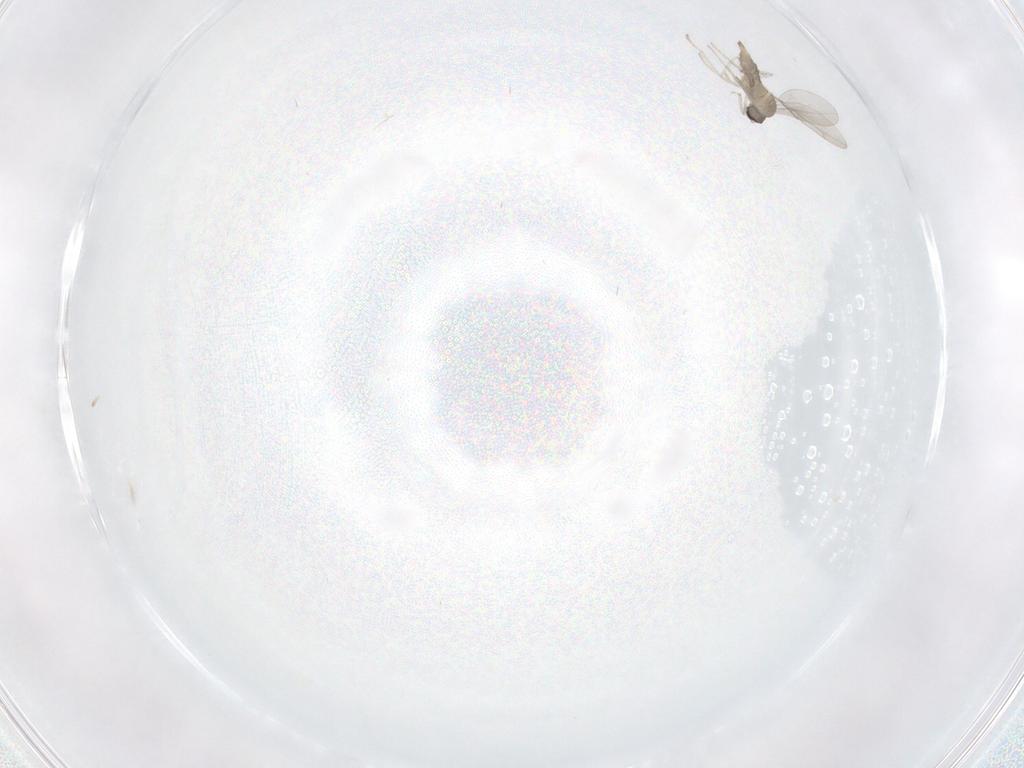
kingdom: Animalia
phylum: Arthropoda
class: Insecta
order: Diptera
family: Cecidomyiidae
